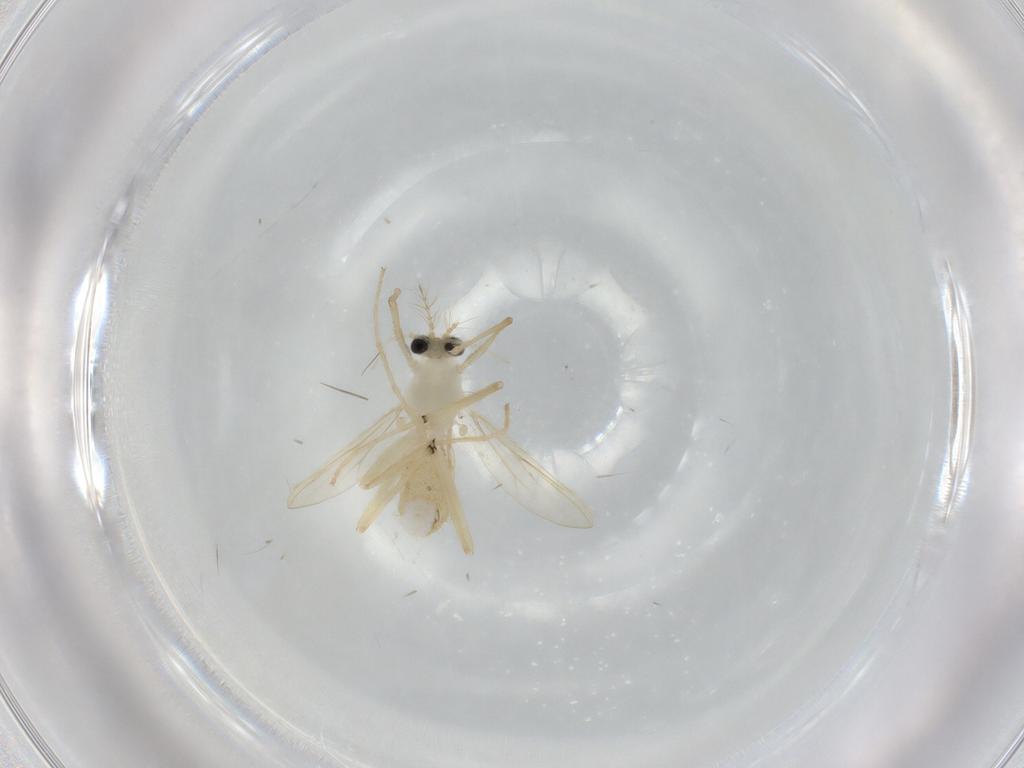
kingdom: Animalia
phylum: Arthropoda
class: Insecta
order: Diptera
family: Chironomidae
